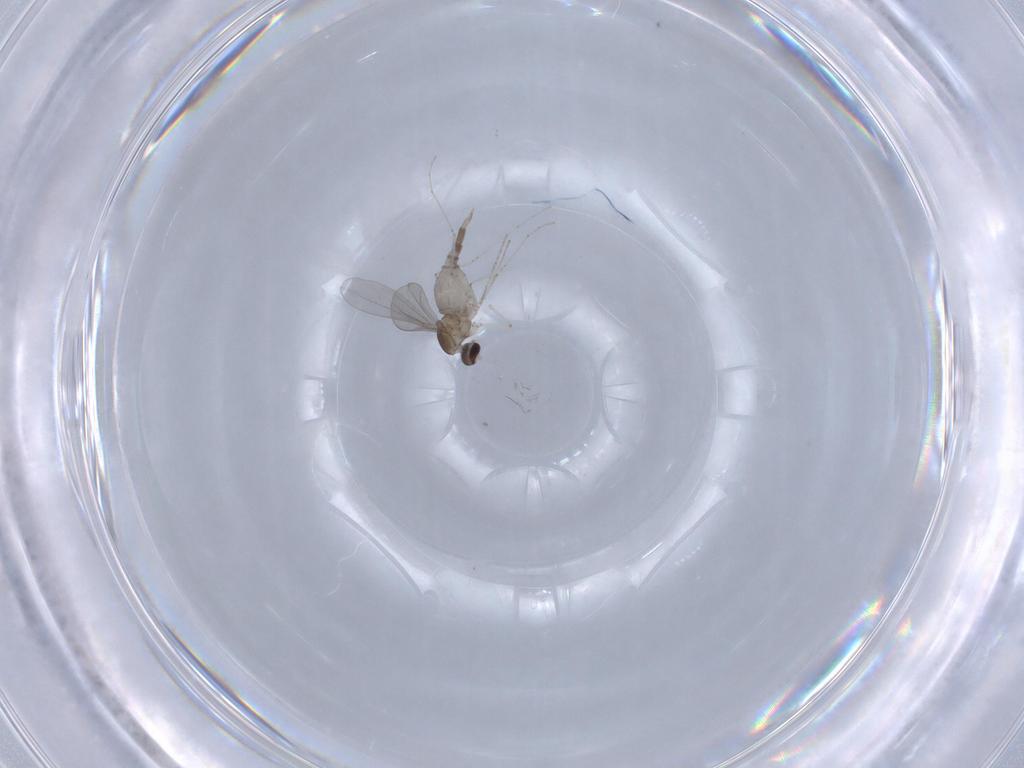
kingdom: Animalia
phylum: Arthropoda
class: Insecta
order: Diptera
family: Cecidomyiidae
